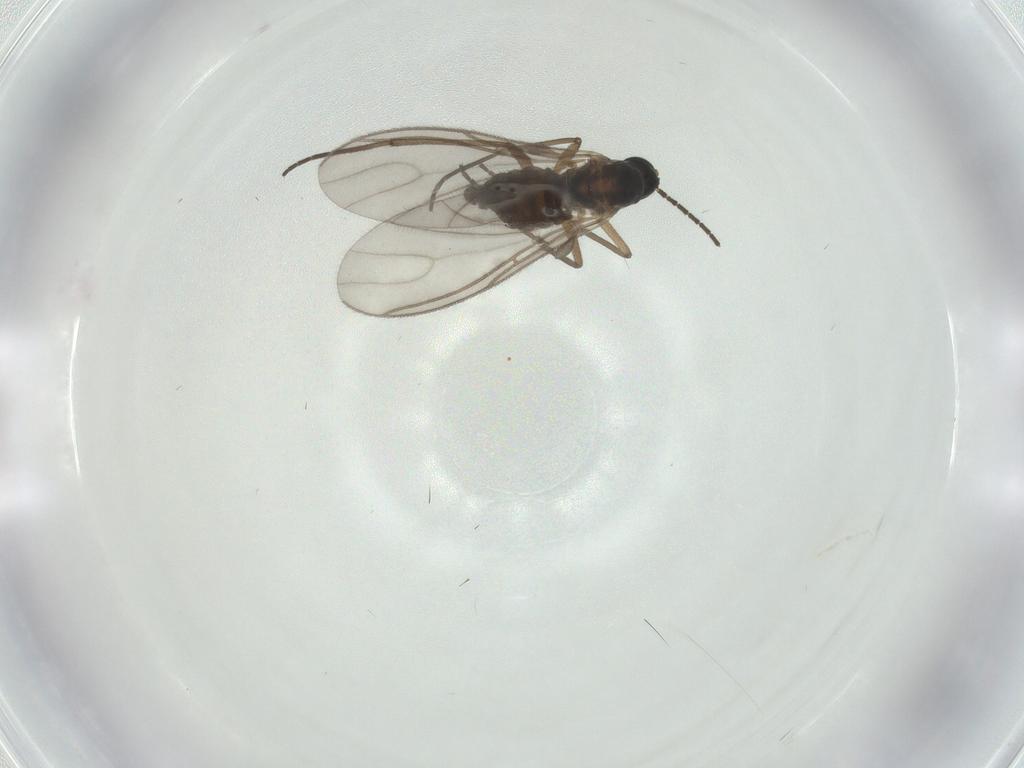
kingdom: Animalia
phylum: Arthropoda
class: Insecta
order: Diptera
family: Sciaridae
